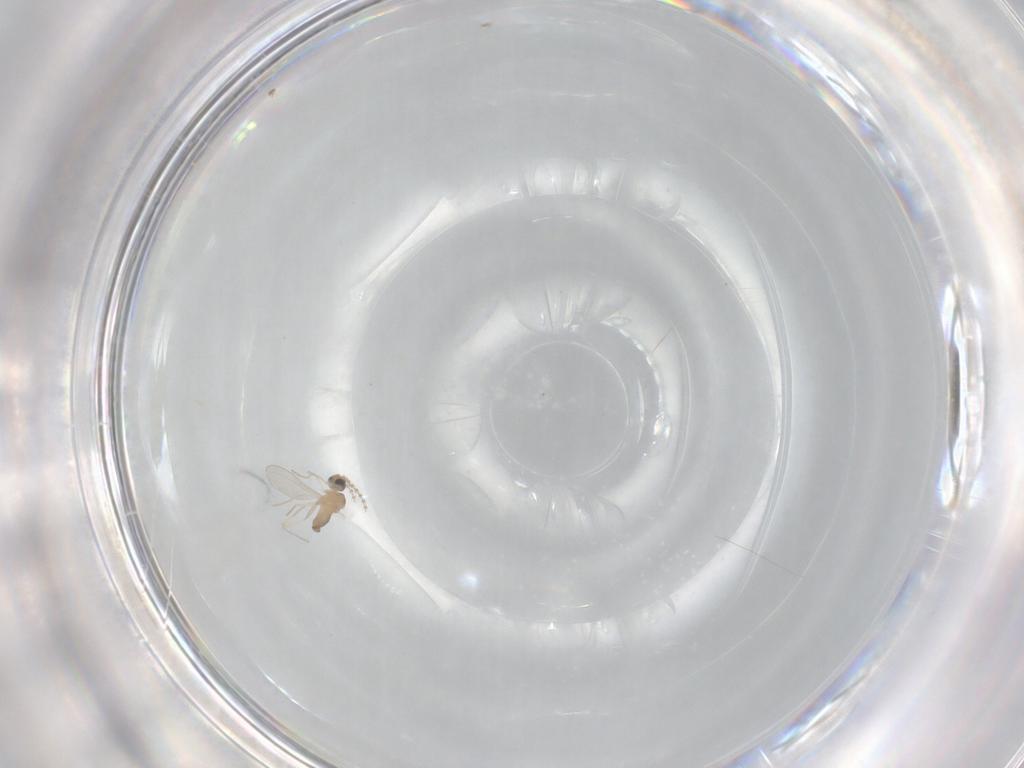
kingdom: Animalia
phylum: Arthropoda
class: Insecta
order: Diptera
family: Cecidomyiidae
